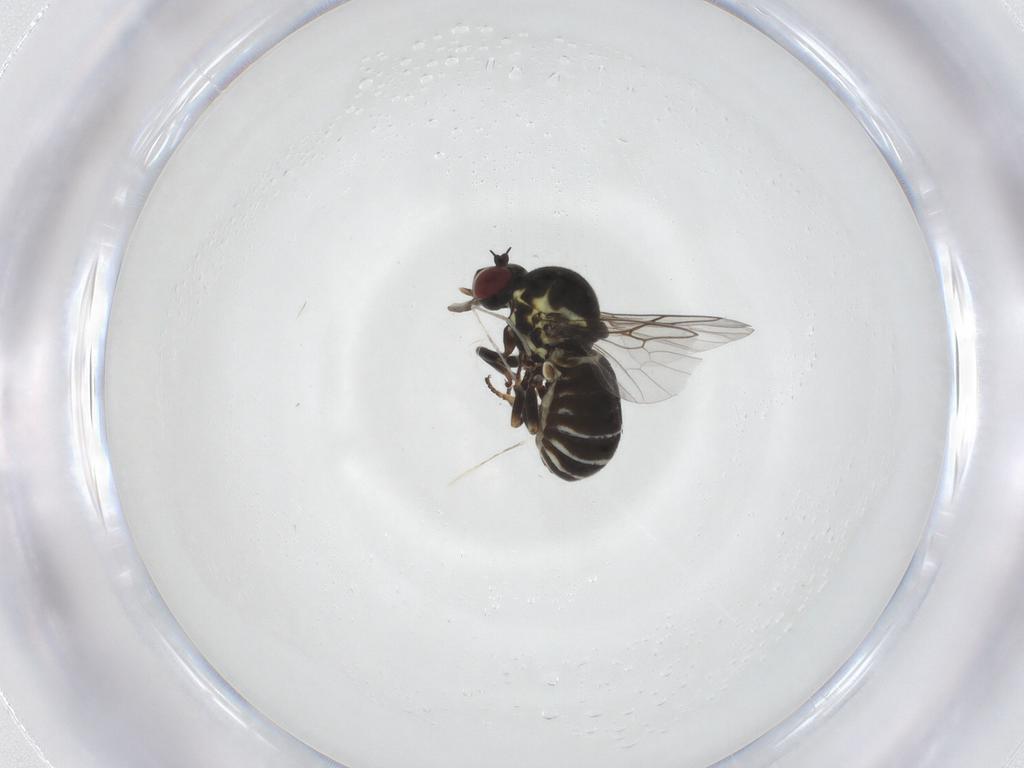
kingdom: Animalia
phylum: Arthropoda
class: Insecta
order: Diptera
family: Mythicomyiidae
